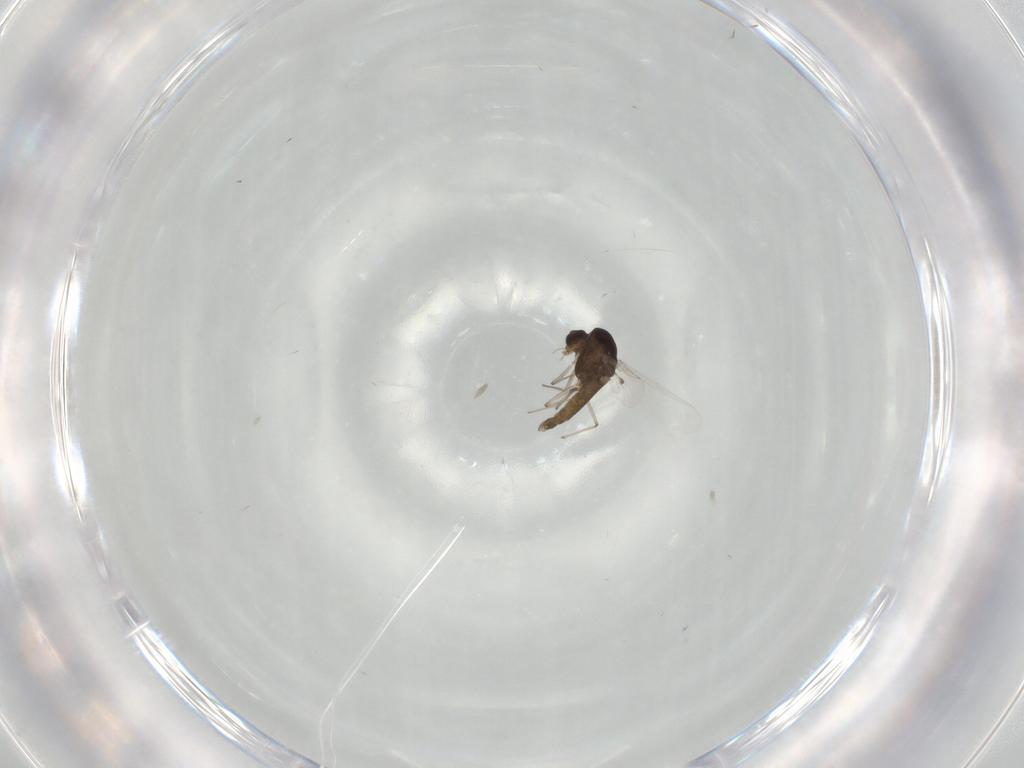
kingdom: Animalia
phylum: Arthropoda
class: Insecta
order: Diptera
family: Chironomidae
